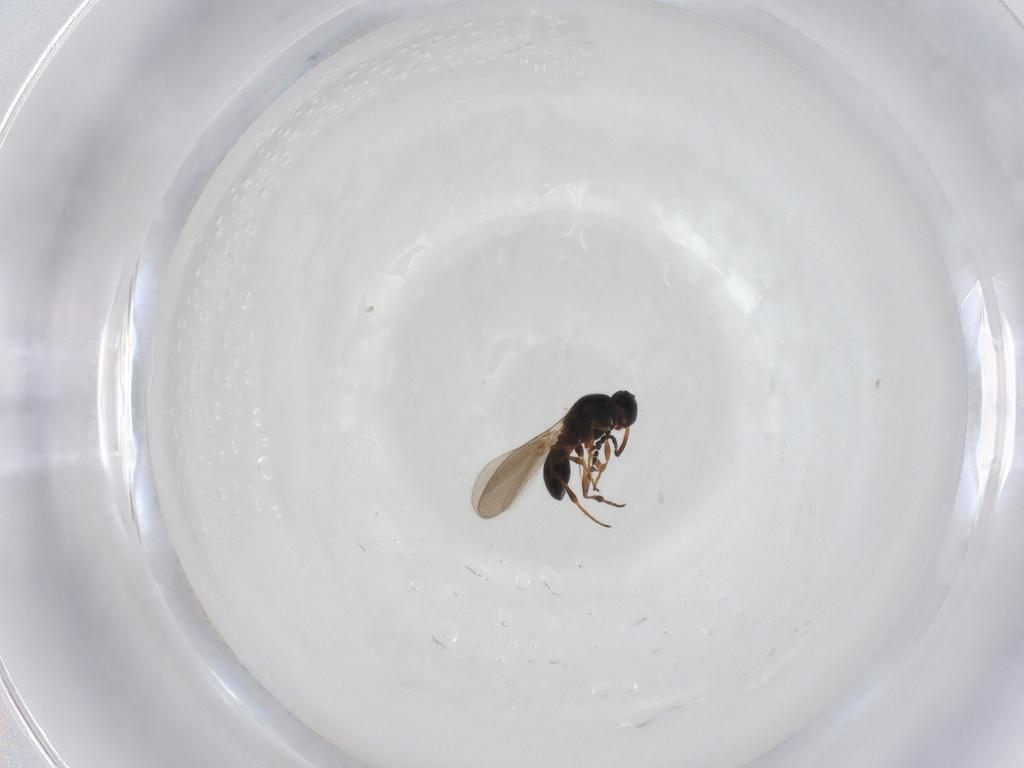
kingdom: Animalia
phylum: Arthropoda
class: Insecta
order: Hymenoptera
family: Platygastridae
